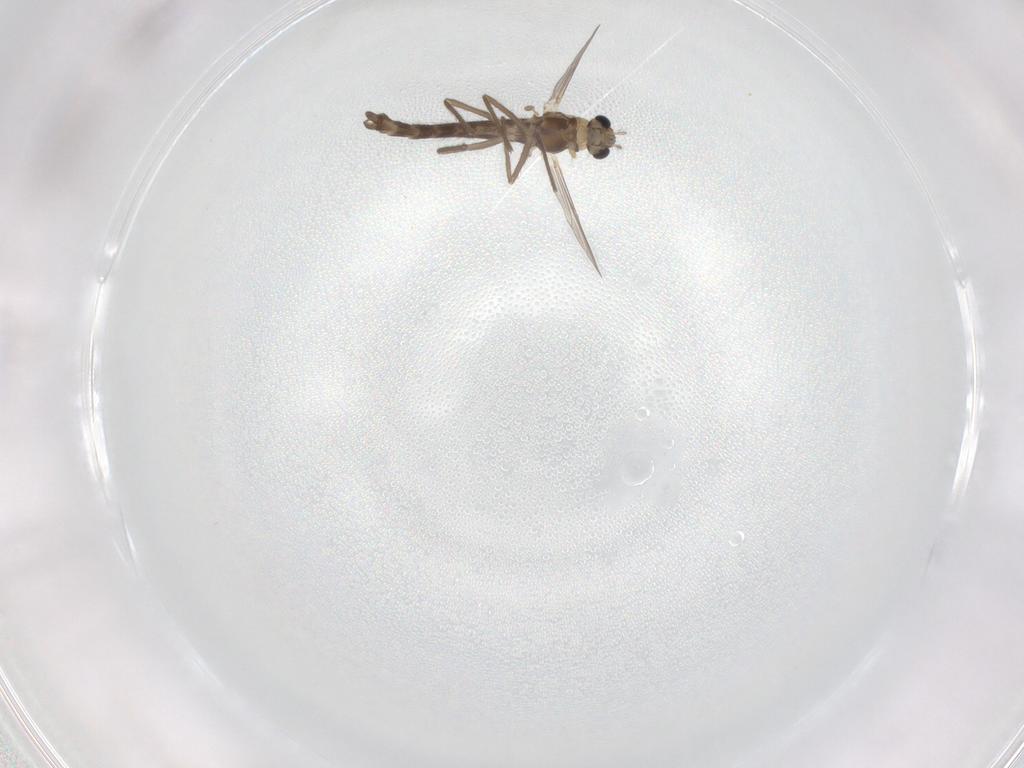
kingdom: Animalia
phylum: Arthropoda
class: Insecta
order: Diptera
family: Chironomidae
